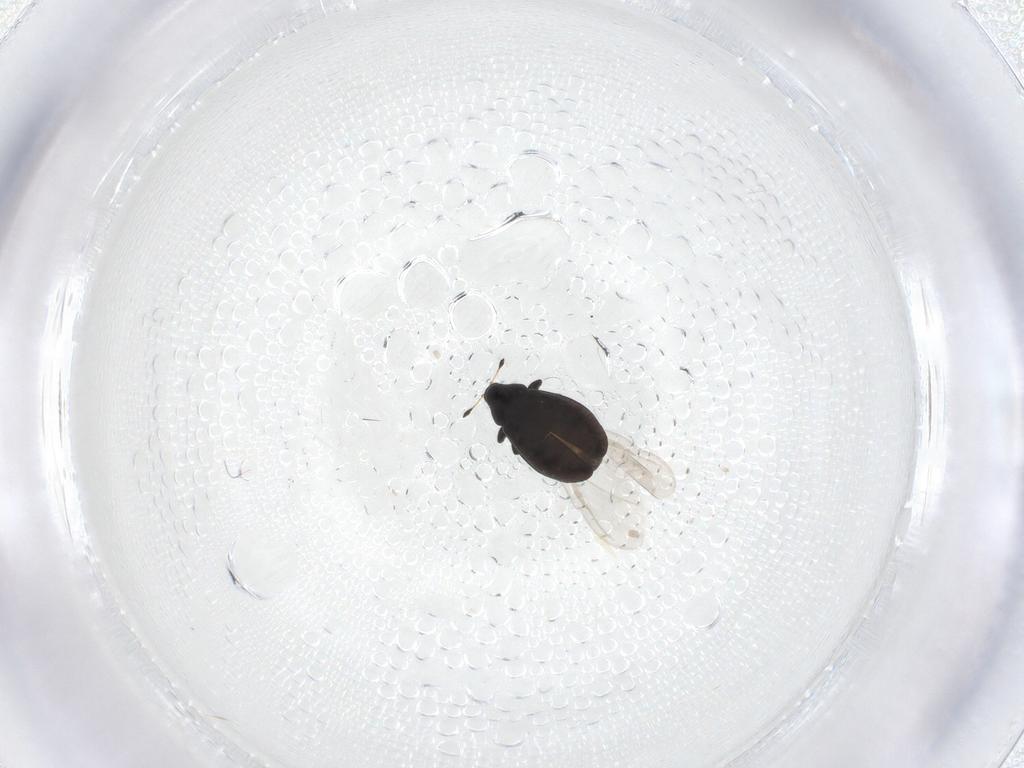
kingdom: Animalia
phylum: Arthropoda
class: Insecta
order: Coleoptera
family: Curculionidae
